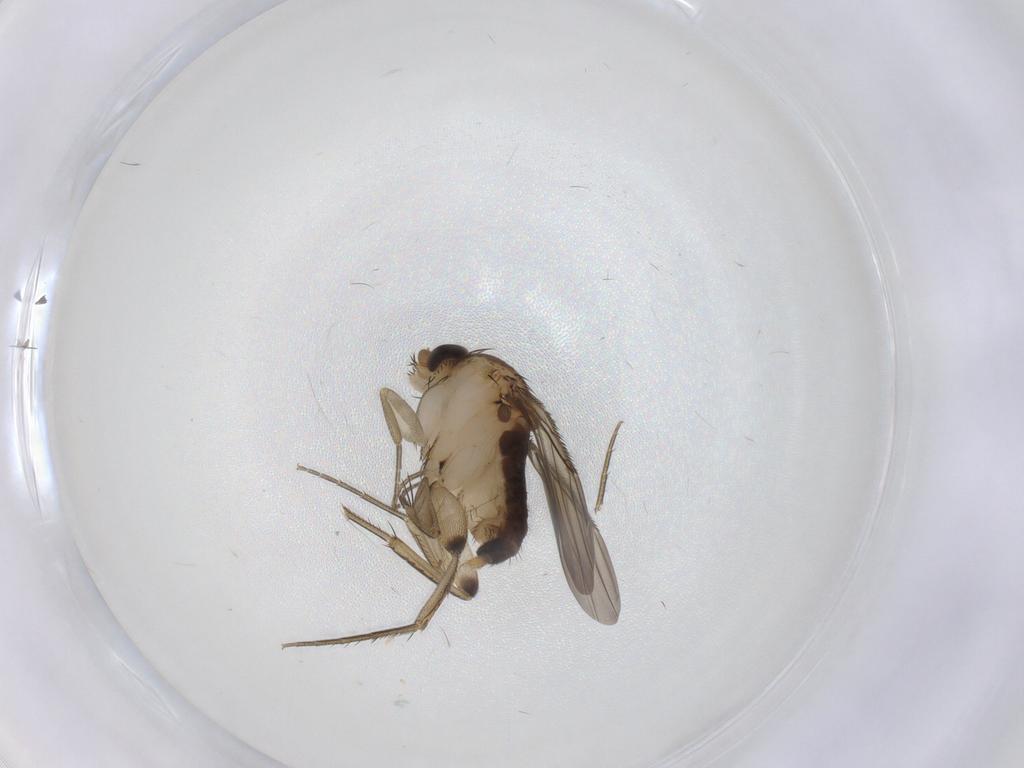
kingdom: Animalia
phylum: Arthropoda
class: Insecta
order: Diptera
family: Phoridae
